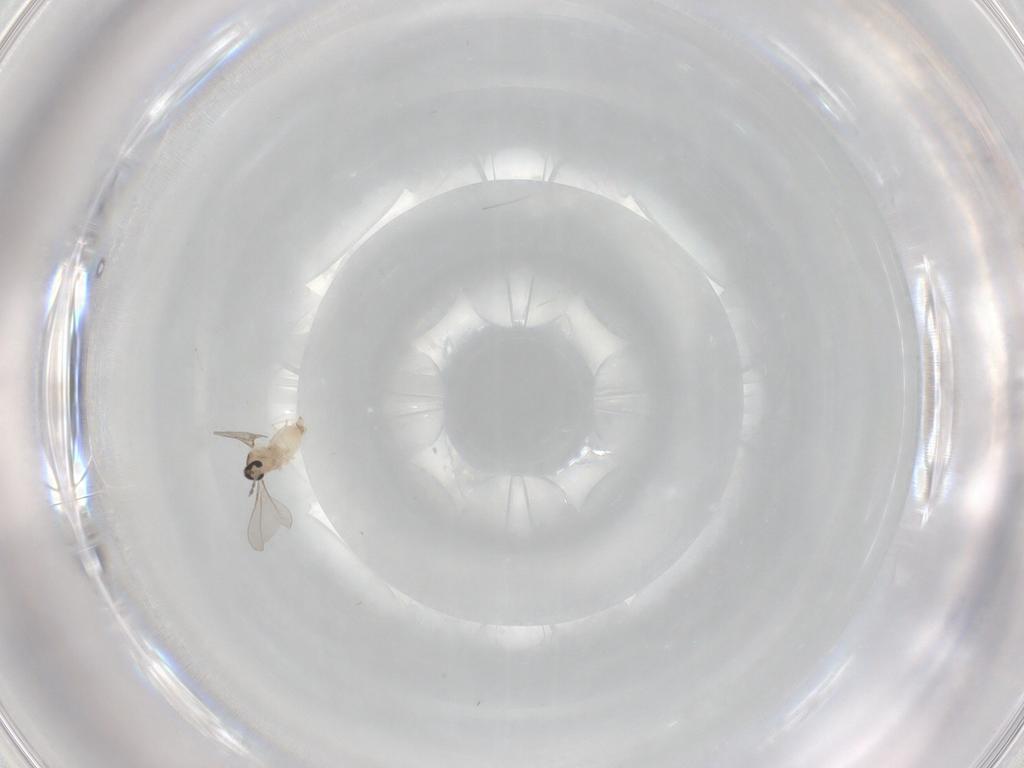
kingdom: Animalia
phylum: Arthropoda
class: Insecta
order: Diptera
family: Cecidomyiidae
